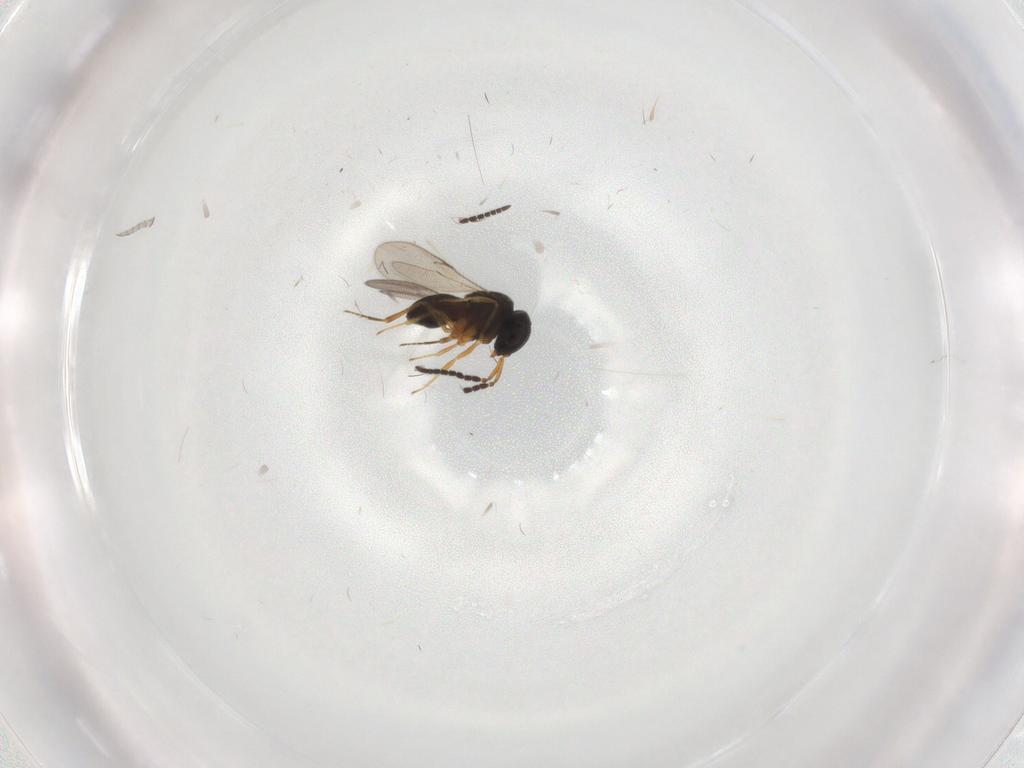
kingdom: Animalia
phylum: Arthropoda
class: Insecta
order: Hymenoptera
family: Scelionidae
